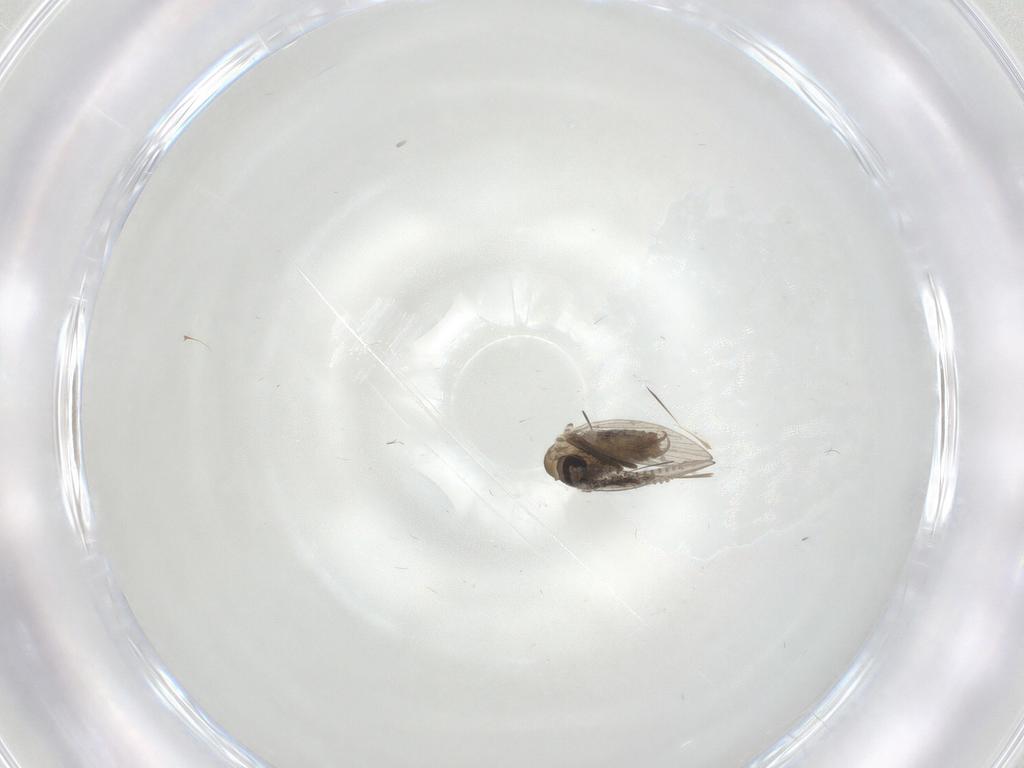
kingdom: Animalia
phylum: Arthropoda
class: Insecta
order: Diptera
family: Psychodidae
